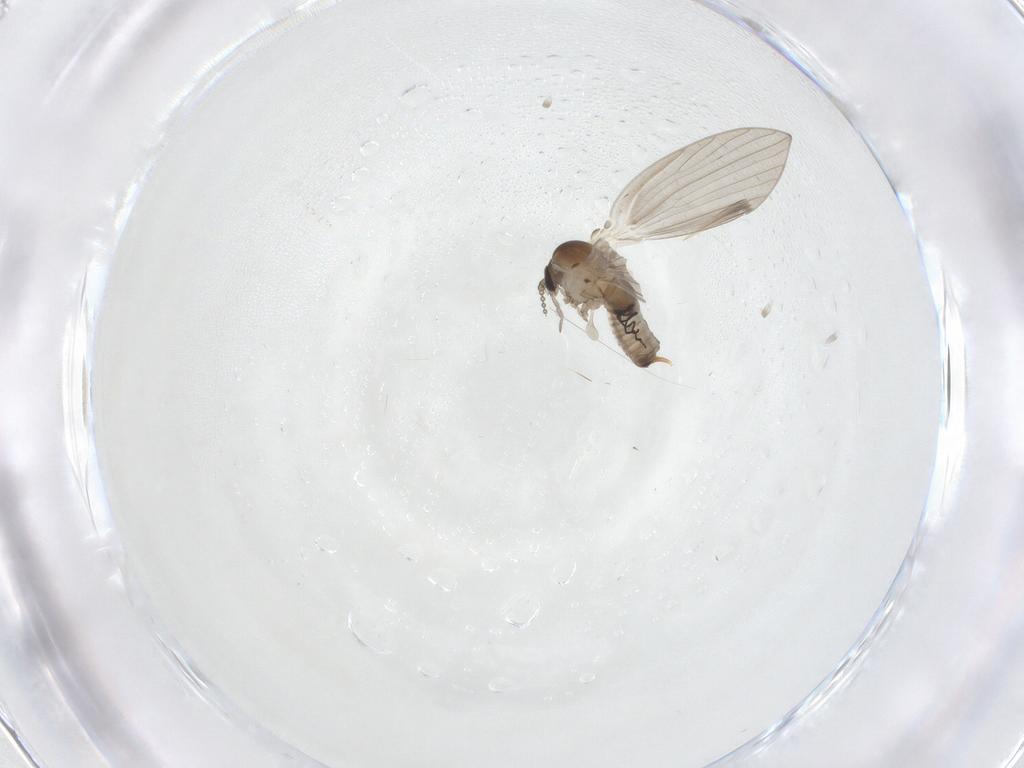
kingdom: Animalia
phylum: Arthropoda
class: Insecta
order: Diptera
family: Psychodidae
